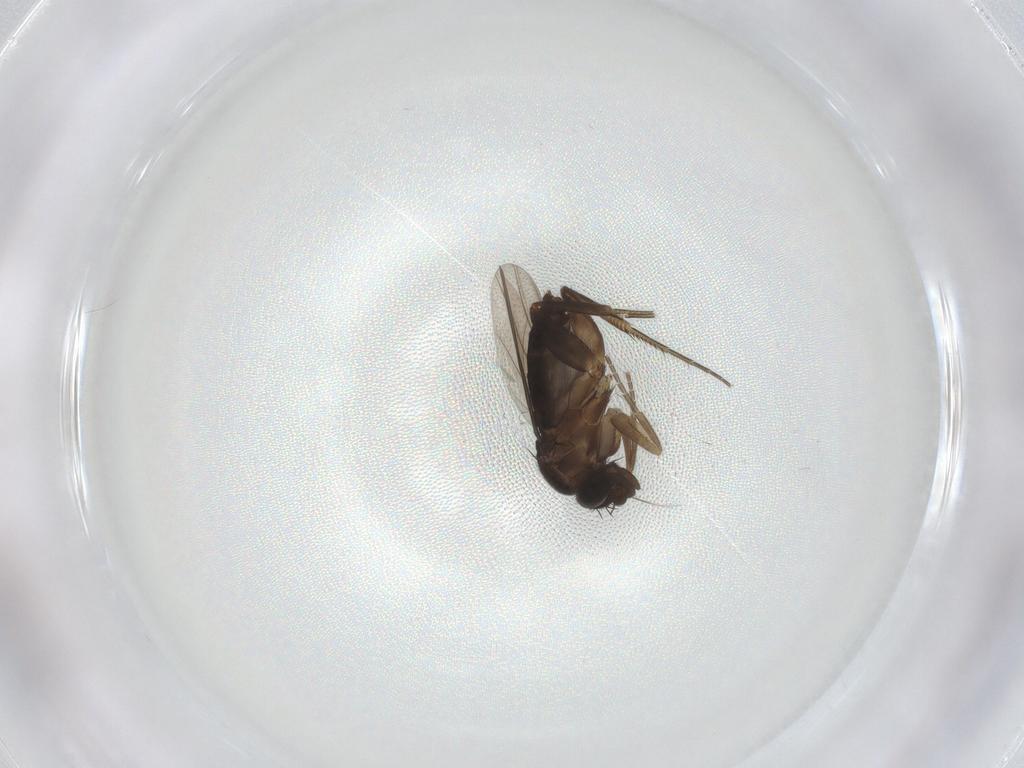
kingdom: Animalia
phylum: Arthropoda
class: Insecta
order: Diptera
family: Phoridae
